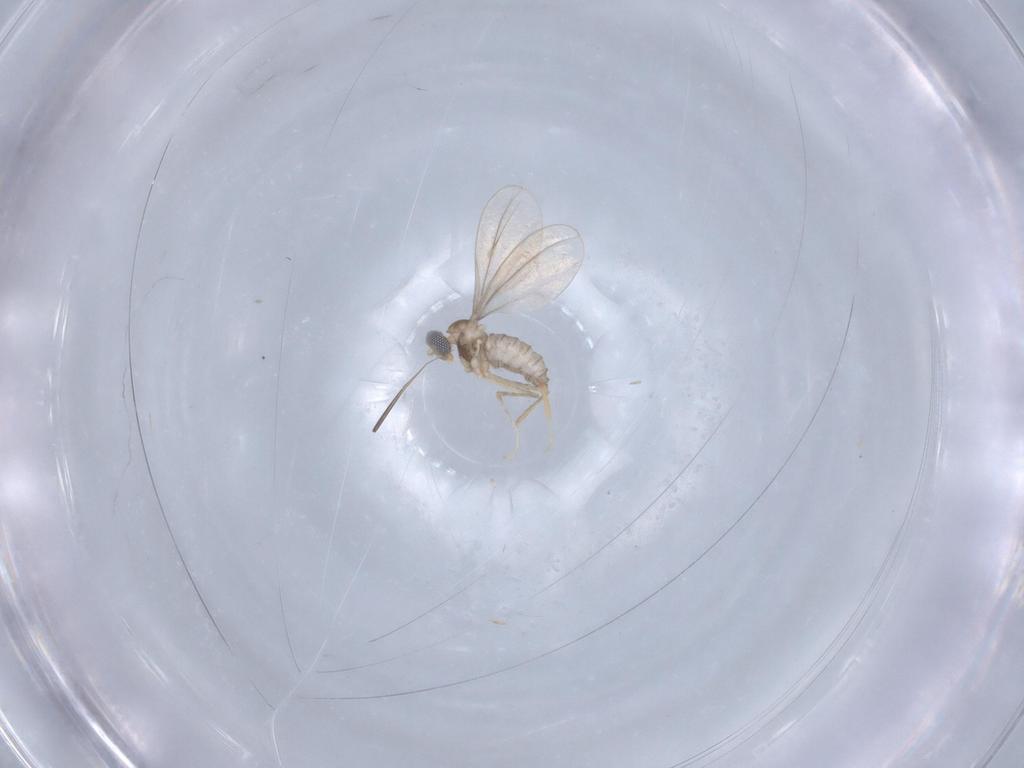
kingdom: Animalia
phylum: Arthropoda
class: Insecta
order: Diptera
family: Cecidomyiidae
